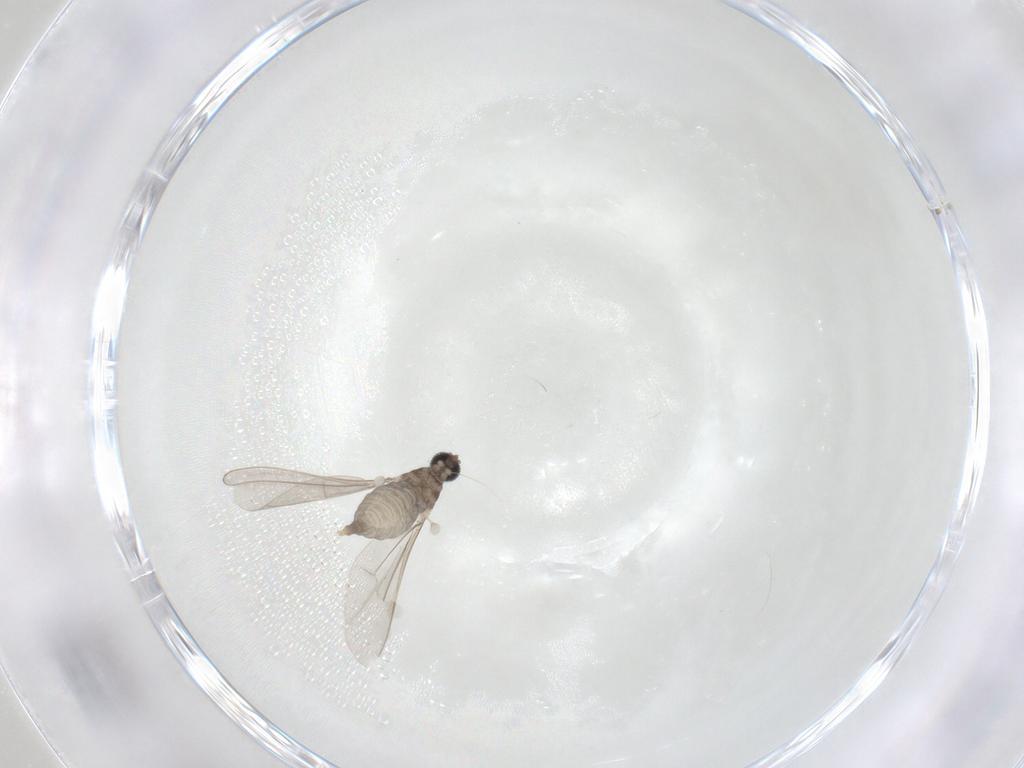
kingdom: Animalia
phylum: Arthropoda
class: Insecta
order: Diptera
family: Cecidomyiidae
